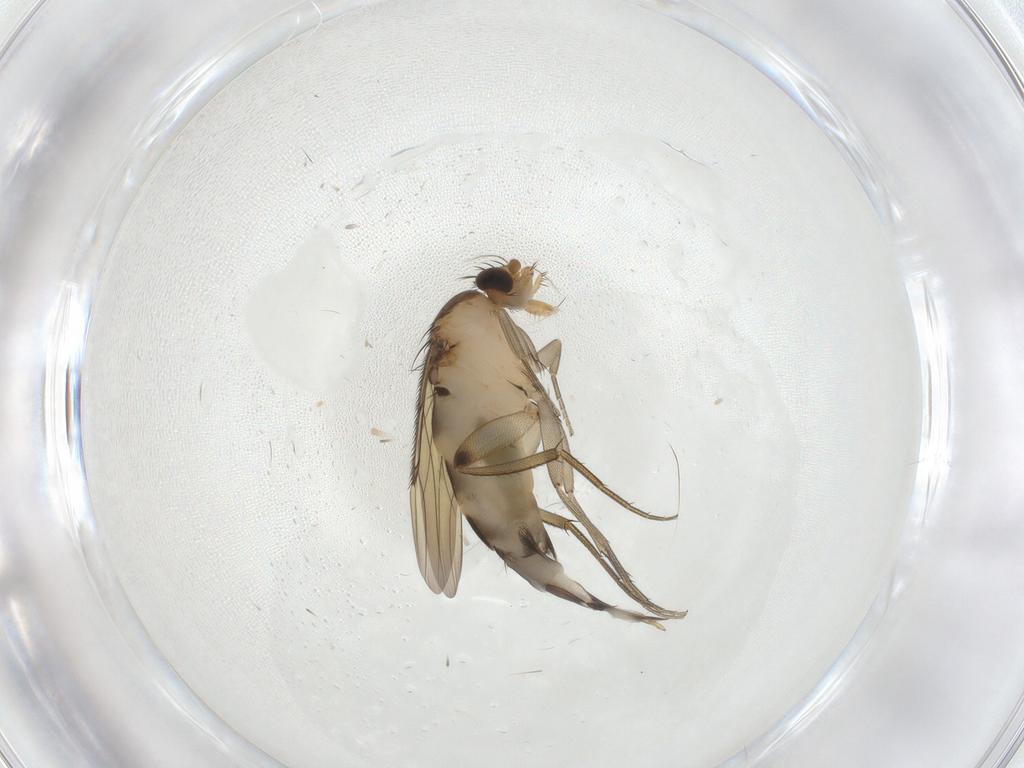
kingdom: Animalia
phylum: Arthropoda
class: Insecta
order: Diptera
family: Phoridae
